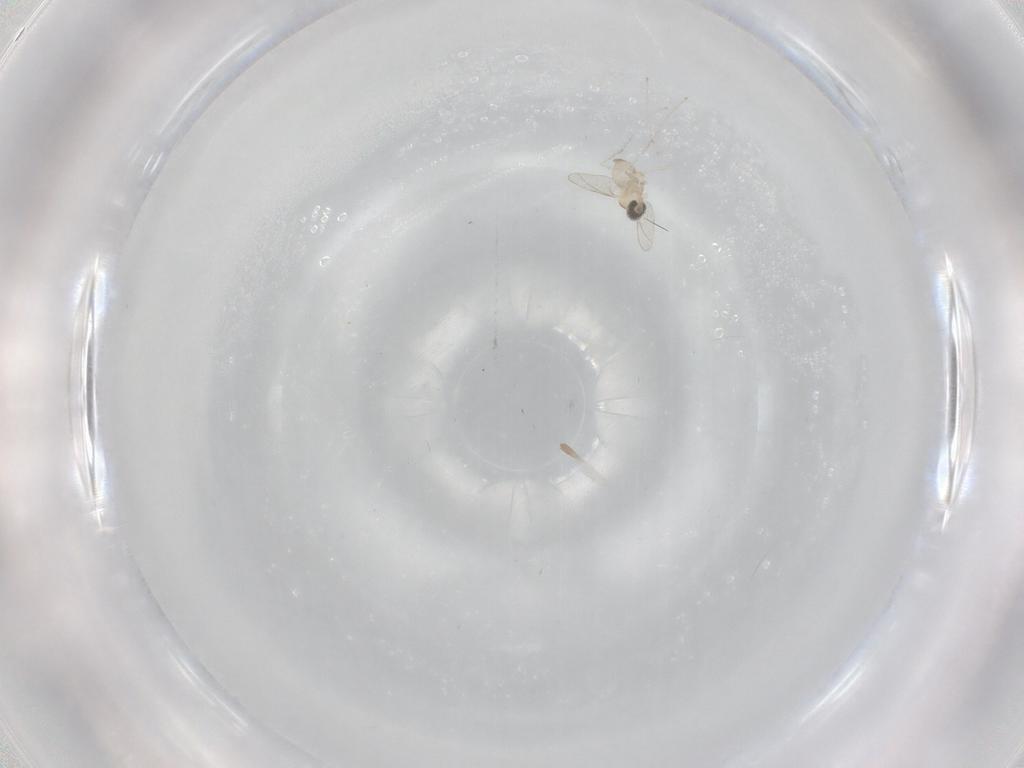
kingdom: Animalia
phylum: Arthropoda
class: Insecta
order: Diptera
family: Cecidomyiidae
